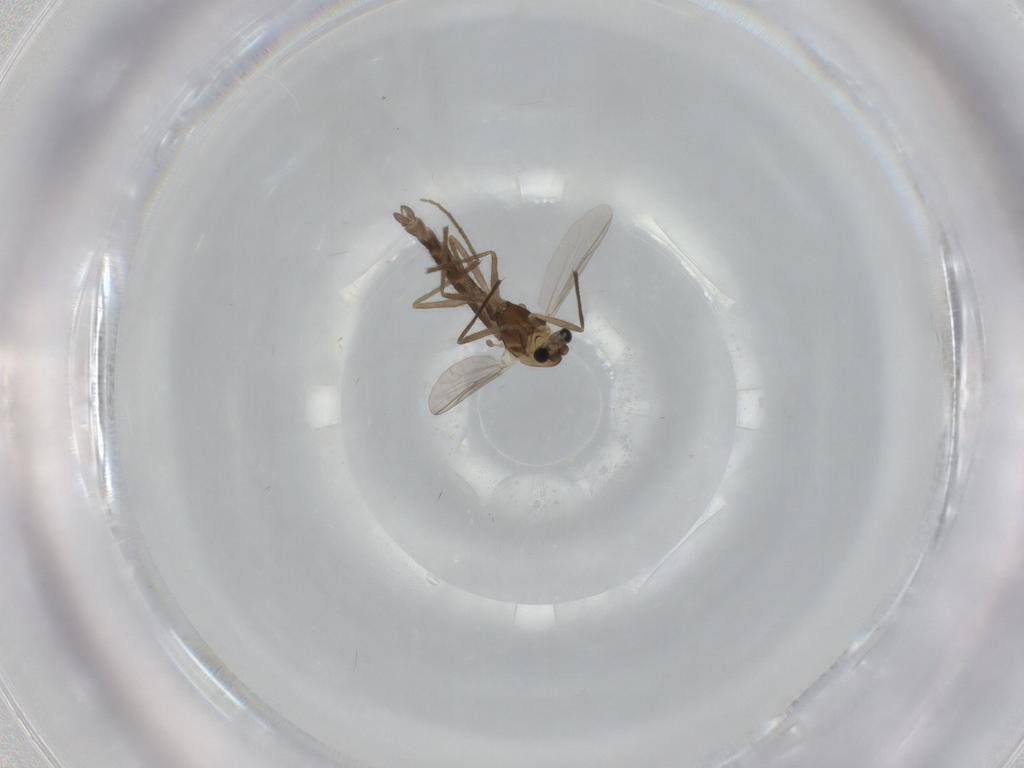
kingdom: Animalia
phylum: Arthropoda
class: Insecta
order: Diptera
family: Chironomidae
